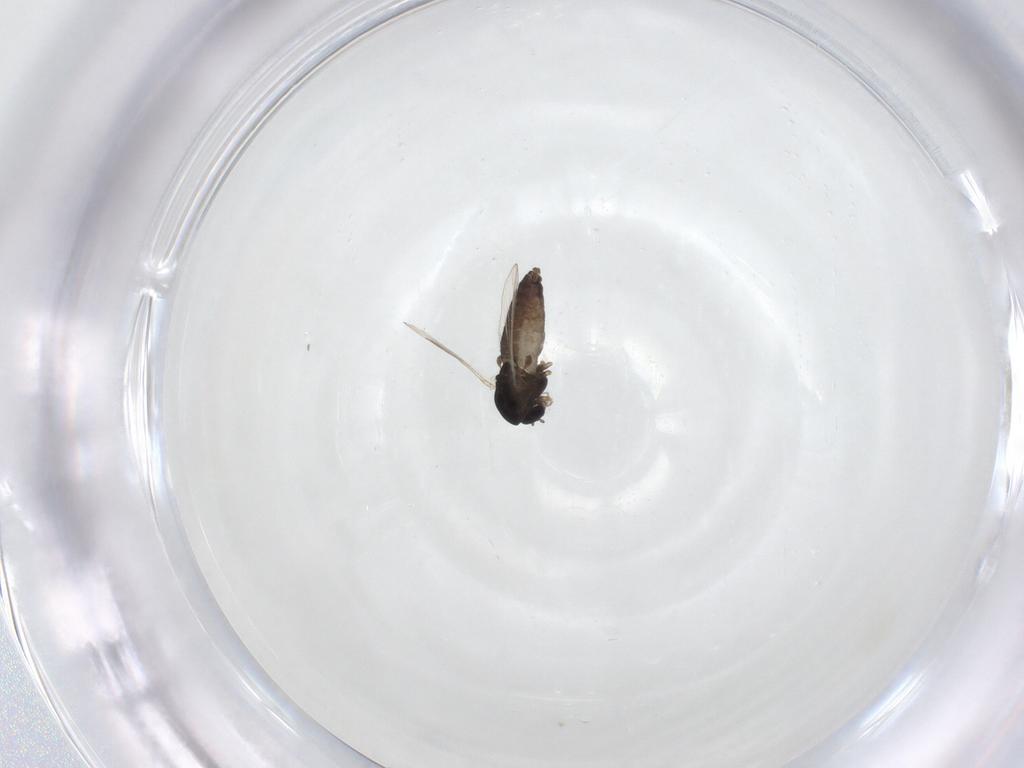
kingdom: Animalia
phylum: Arthropoda
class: Insecta
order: Diptera
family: Chironomidae
